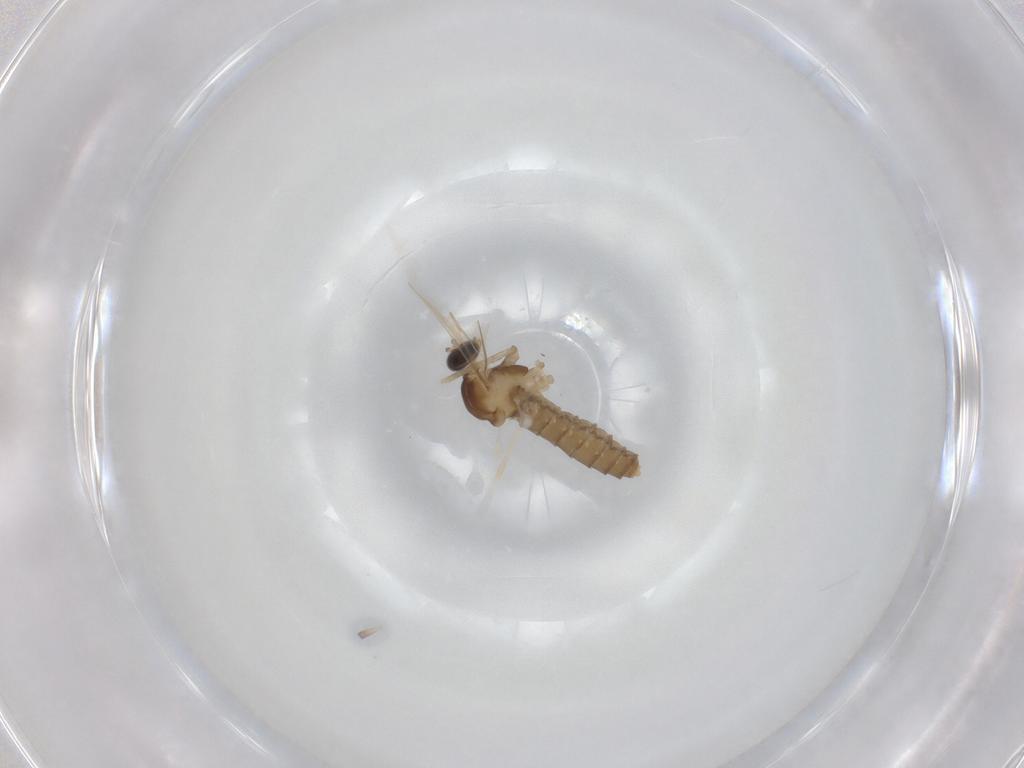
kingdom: Animalia
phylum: Arthropoda
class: Insecta
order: Diptera
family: Cecidomyiidae
